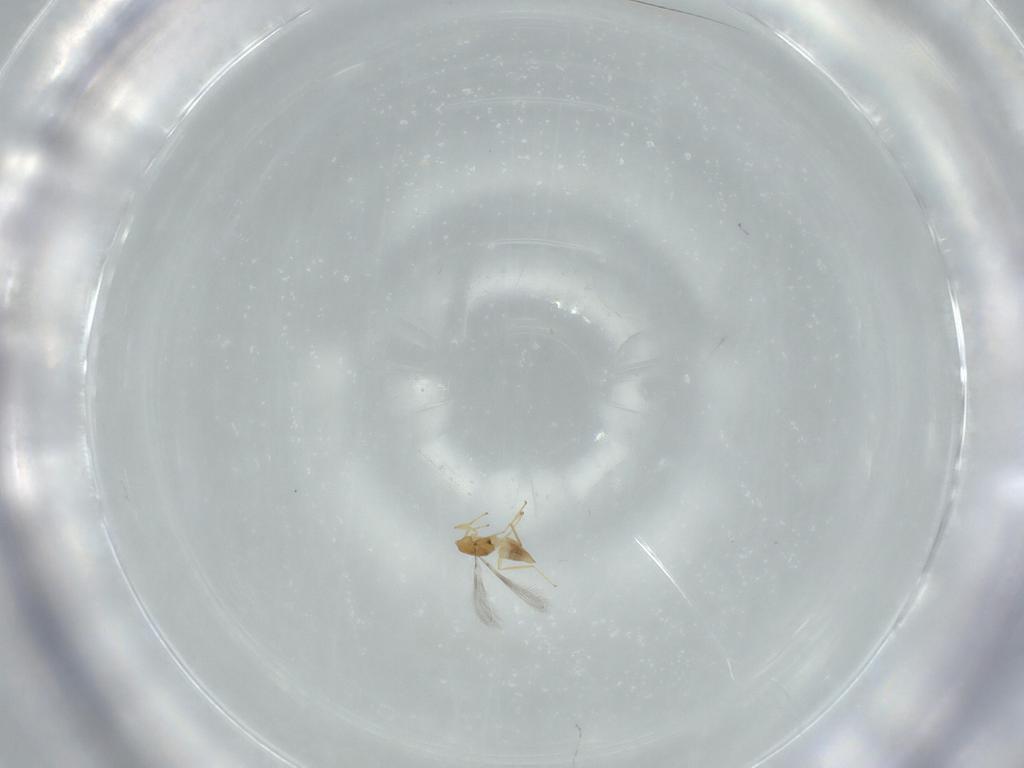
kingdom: Animalia
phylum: Arthropoda
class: Insecta
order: Hymenoptera
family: Mymaridae
